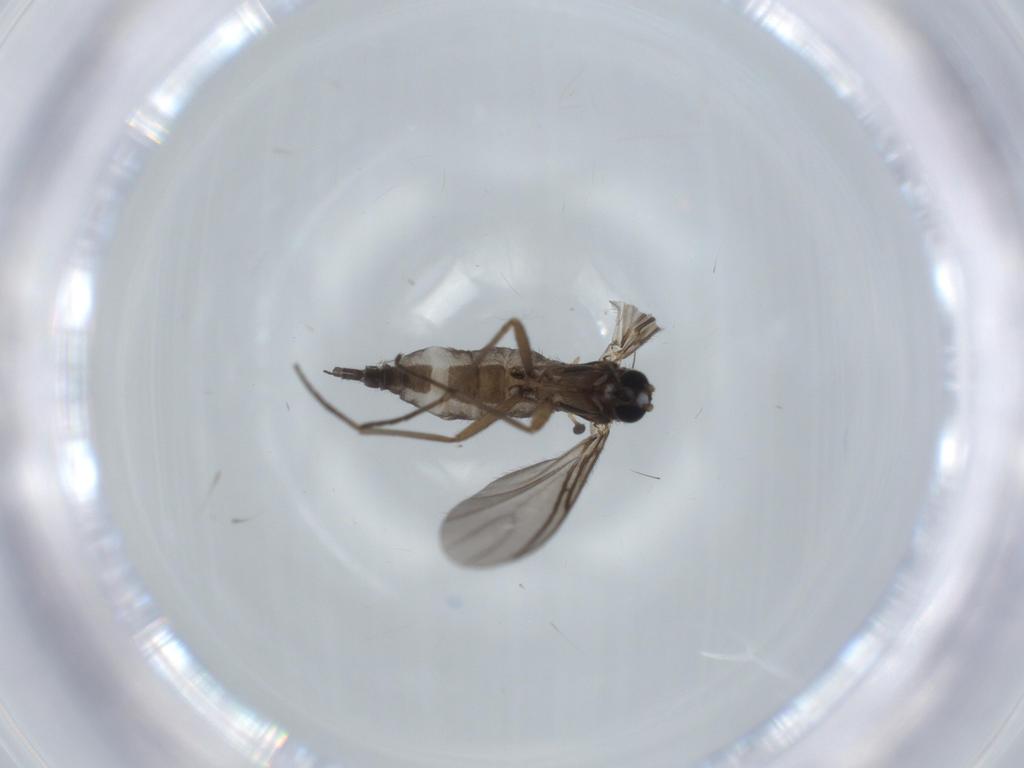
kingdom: Animalia
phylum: Arthropoda
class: Insecta
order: Diptera
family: Sciaridae
